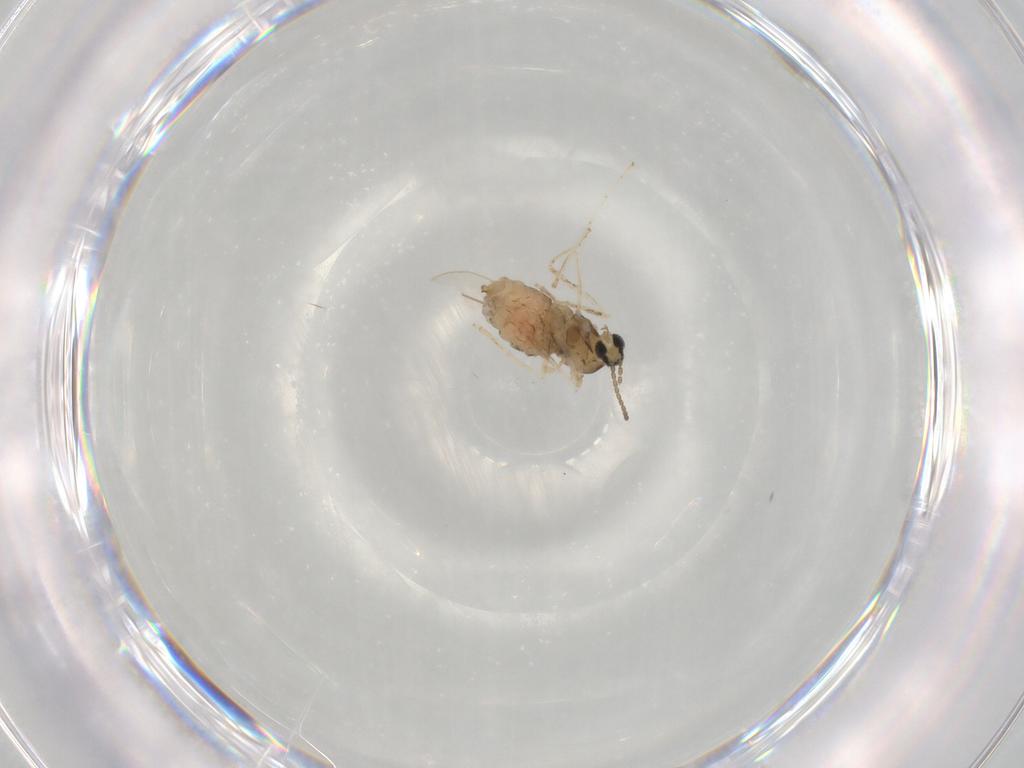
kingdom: Animalia
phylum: Arthropoda
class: Insecta
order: Diptera
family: Cecidomyiidae
